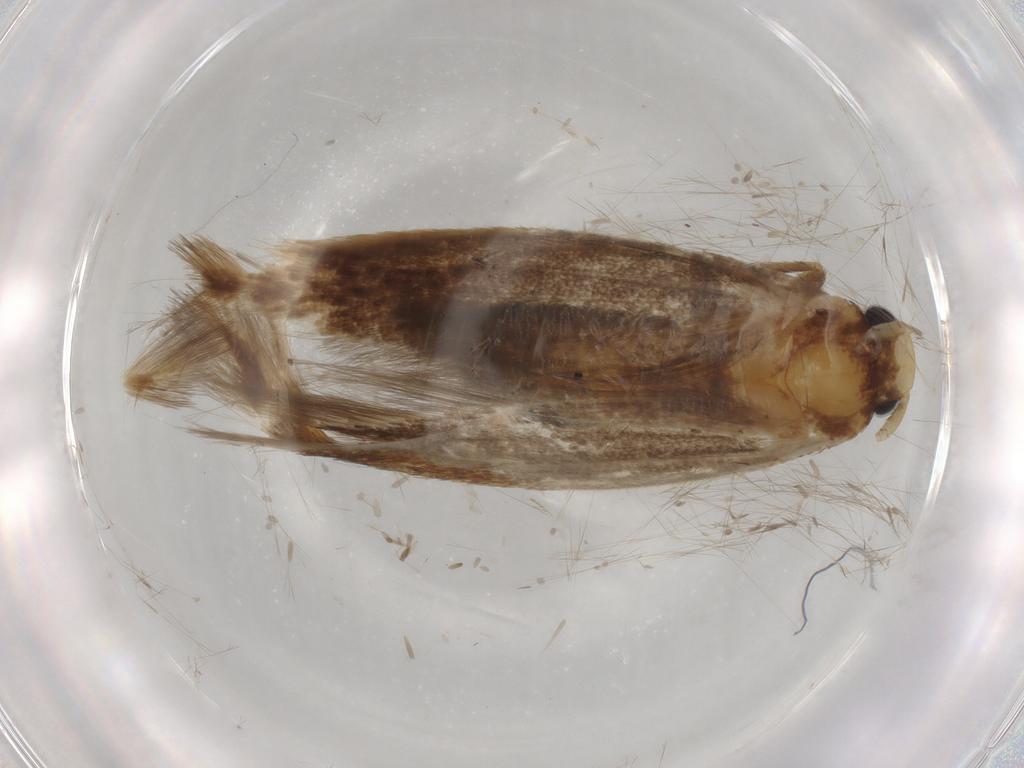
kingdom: Animalia
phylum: Arthropoda
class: Insecta
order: Lepidoptera
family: Tineidae
